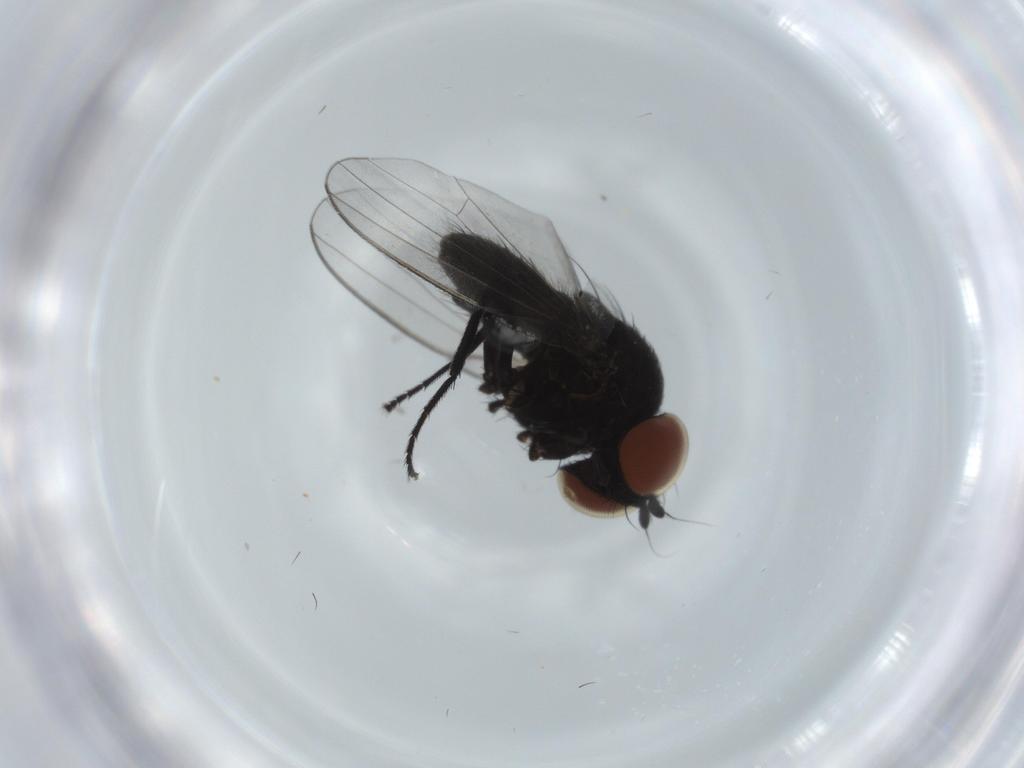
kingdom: Animalia
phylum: Arthropoda
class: Insecta
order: Diptera
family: Milichiidae
